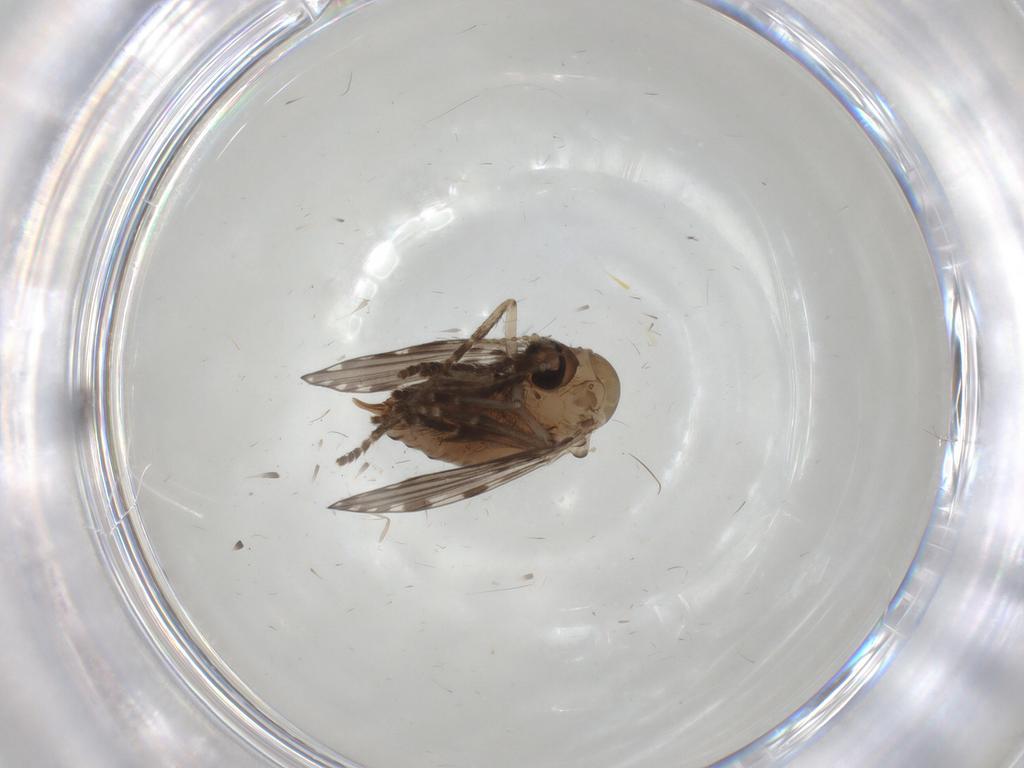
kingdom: Animalia
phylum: Arthropoda
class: Insecta
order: Diptera
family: Psychodidae
